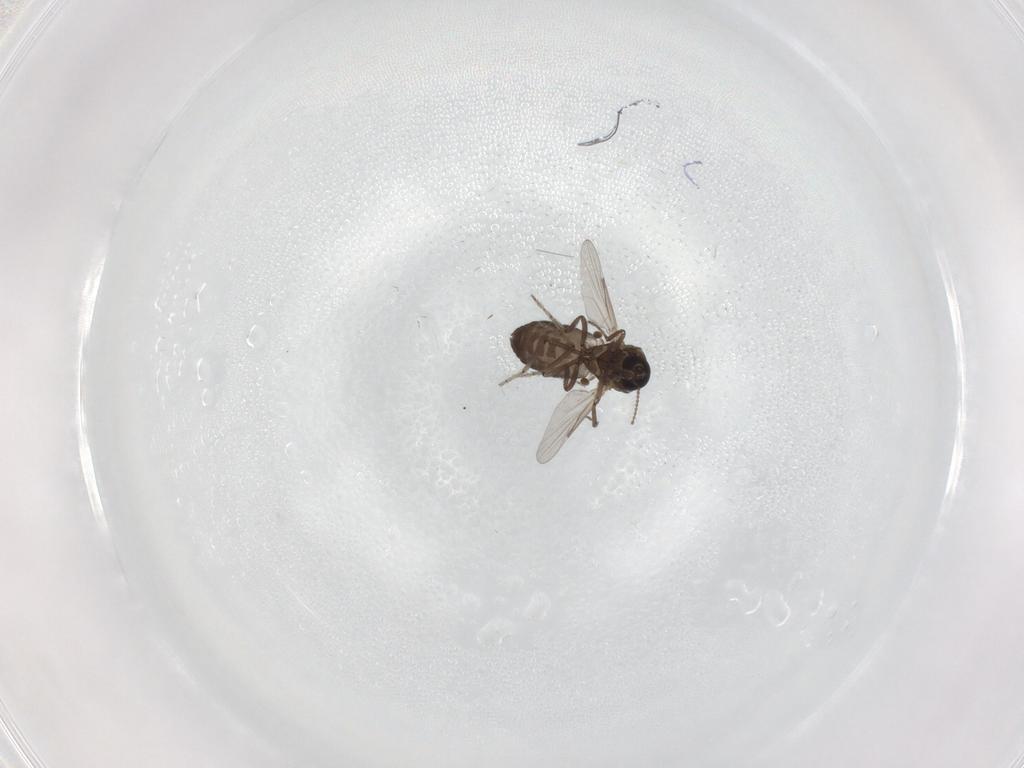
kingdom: Animalia
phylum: Arthropoda
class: Insecta
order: Diptera
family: Ceratopogonidae
